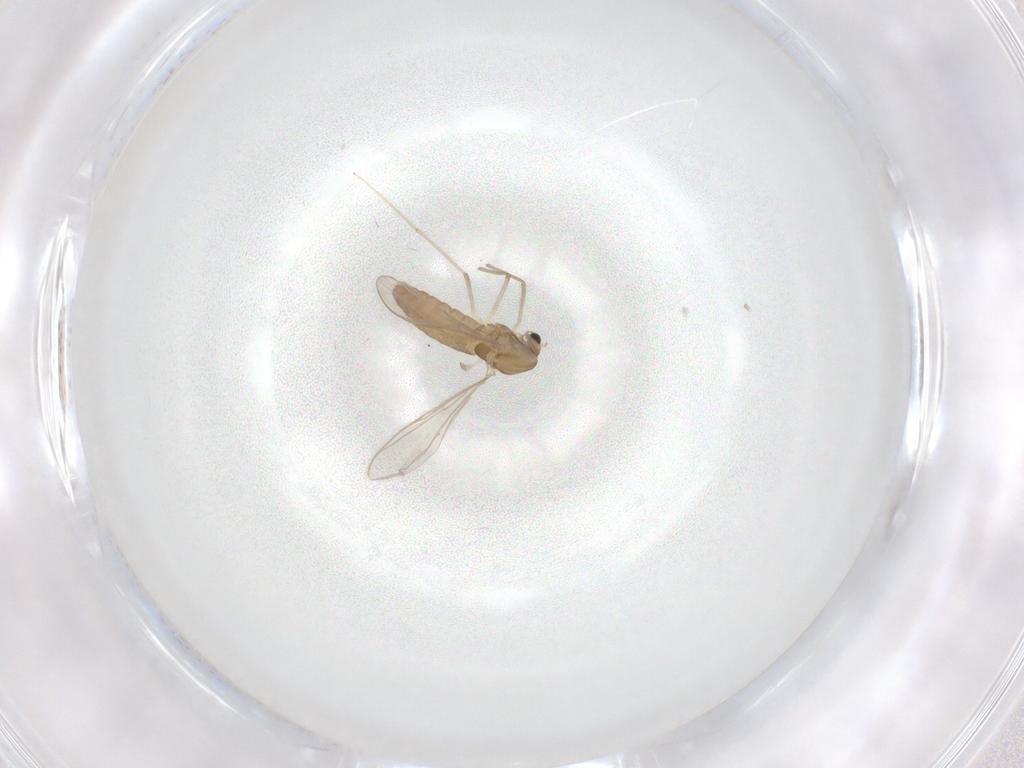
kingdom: Animalia
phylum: Arthropoda
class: Insecta
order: Diptera
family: Chironomidae
